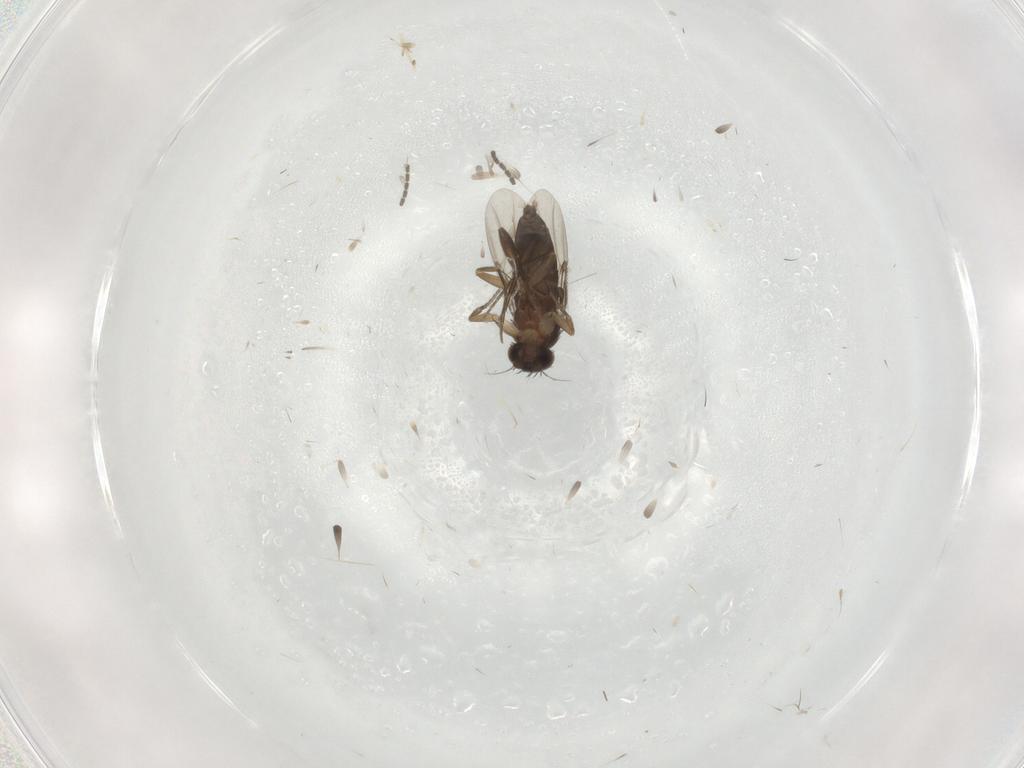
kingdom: Animalia
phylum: Arthropoda
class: Insecta
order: Diptera
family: Phoridae
